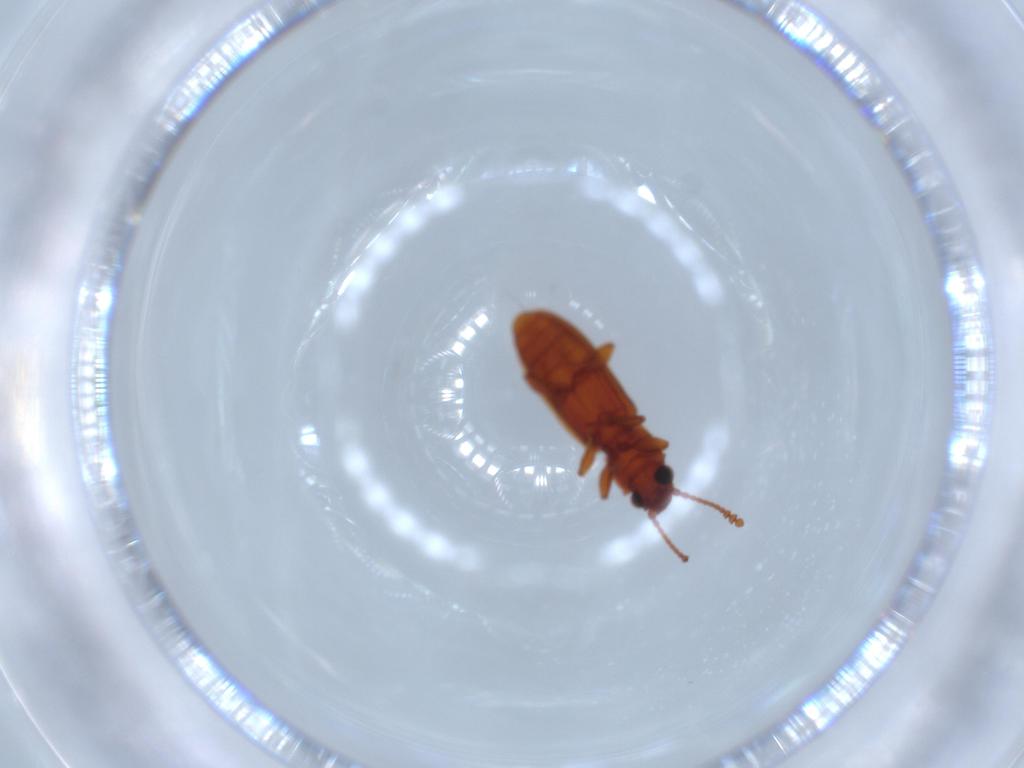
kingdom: Animalia
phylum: Arthropoda
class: Insecta
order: Coleoptera
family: Silvanidae
